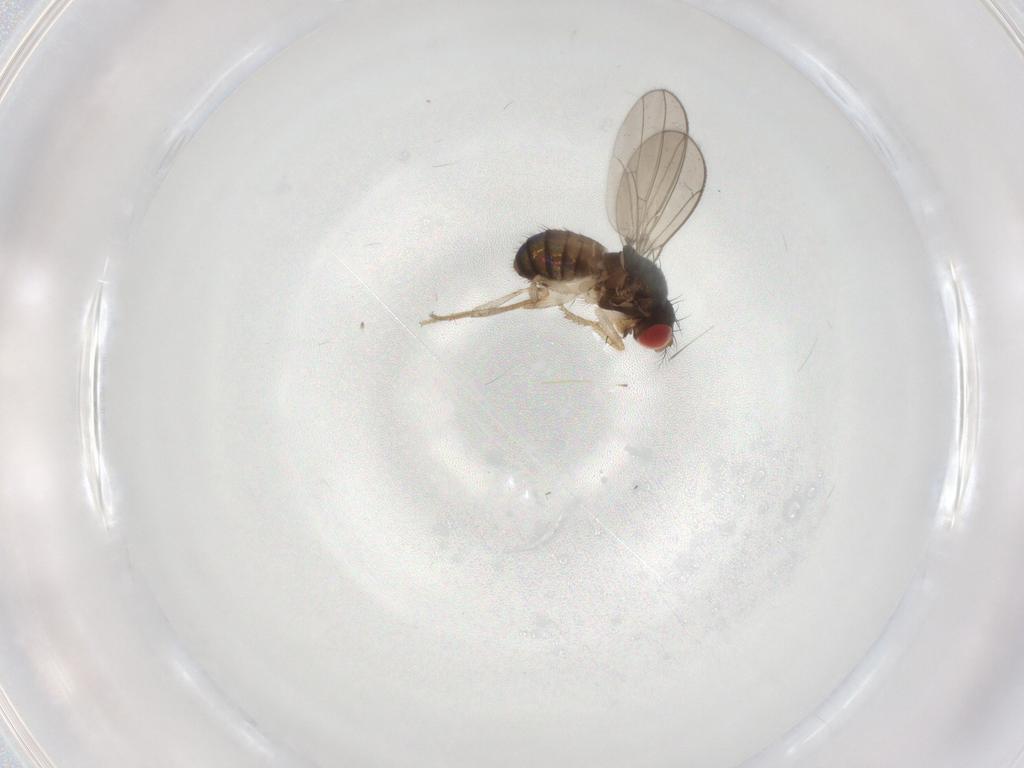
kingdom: Animalia
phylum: Arthropoda
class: Insecta
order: Diptera
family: Drosophilidae
